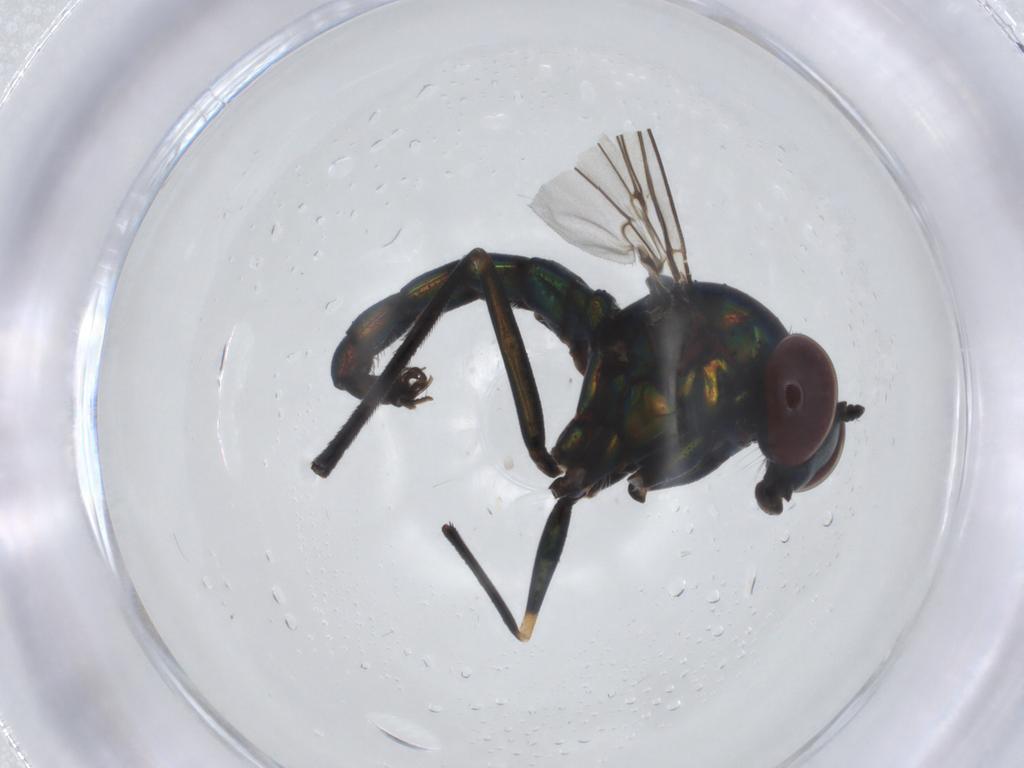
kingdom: Animalia
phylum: Arthropoda
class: Insecta
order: Diptera
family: Dolichopodidae
